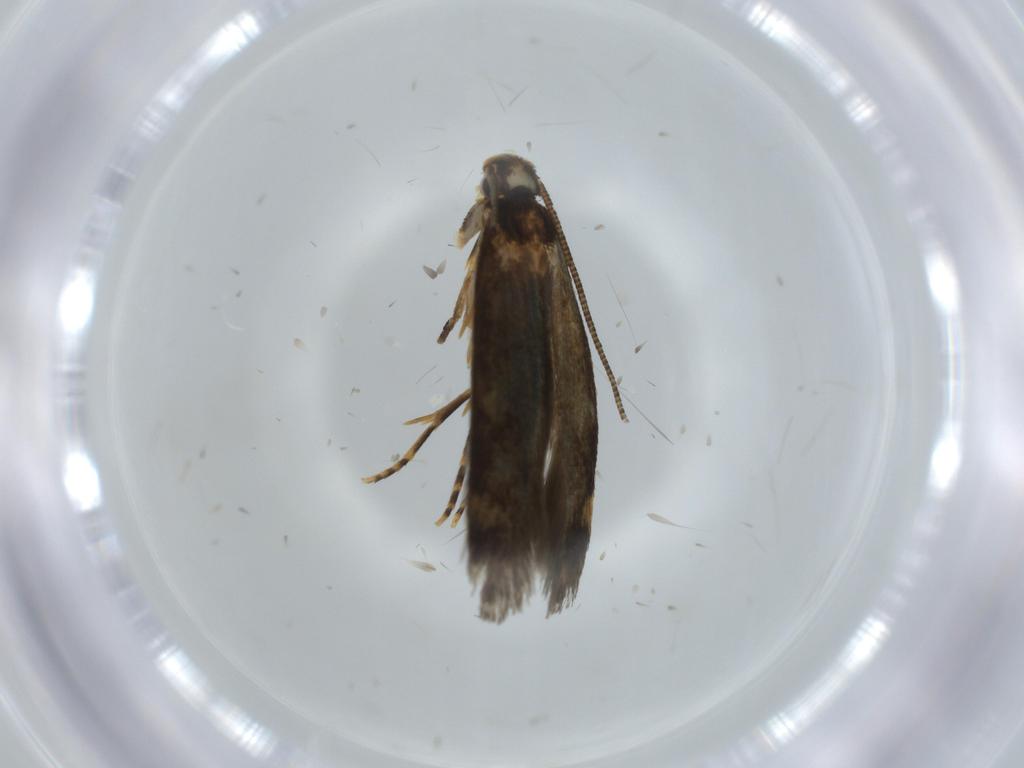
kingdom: Animalia
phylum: Arthropoda
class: Insecta
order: Lepidoptera
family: Tineidae
